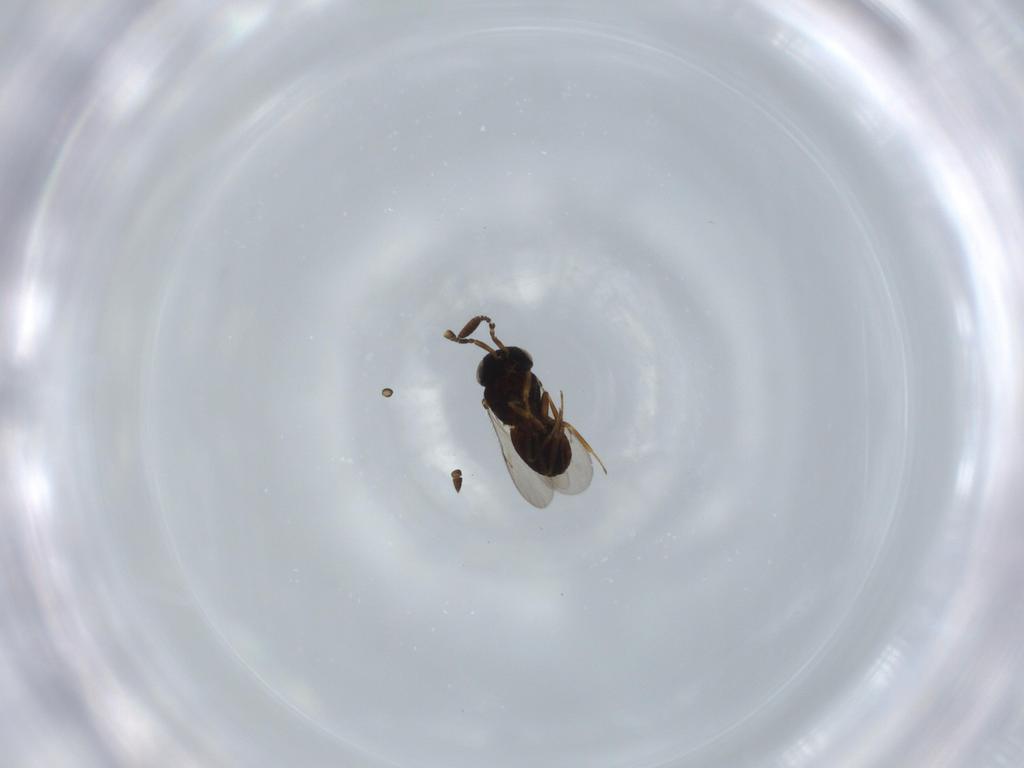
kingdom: Animalia
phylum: Arthropoda
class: Insecta
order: Hymenoptera
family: Scelionidae
